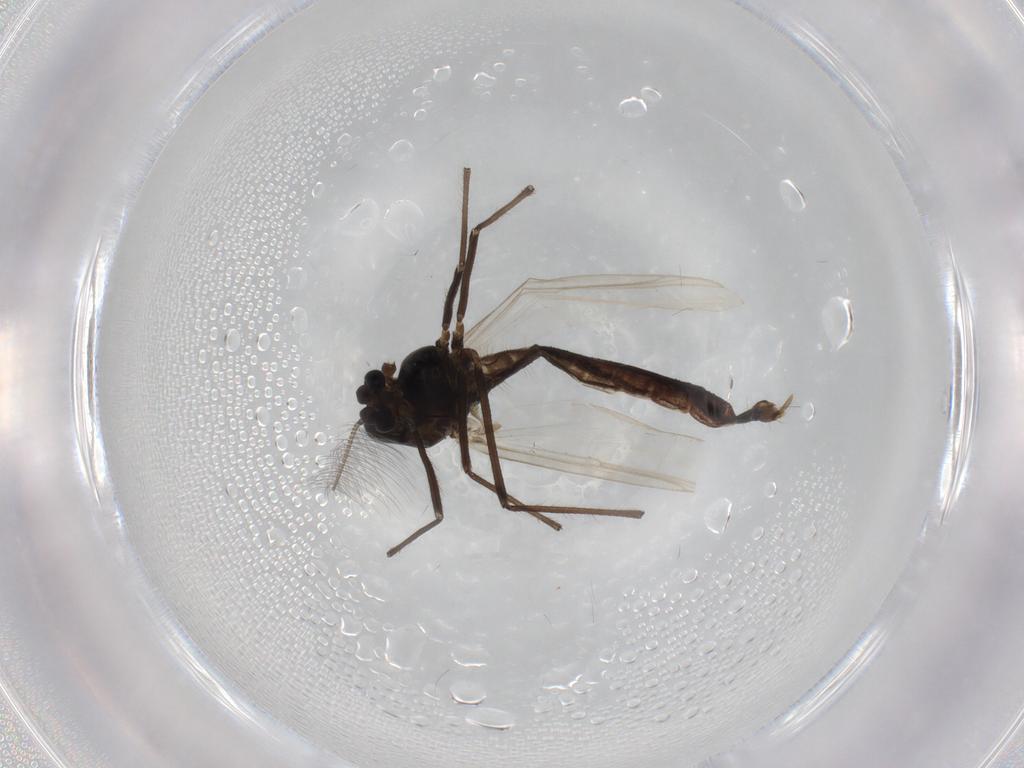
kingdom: Animalia
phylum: Arthropoda
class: Insecta
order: Diptera
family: Chironomidae
